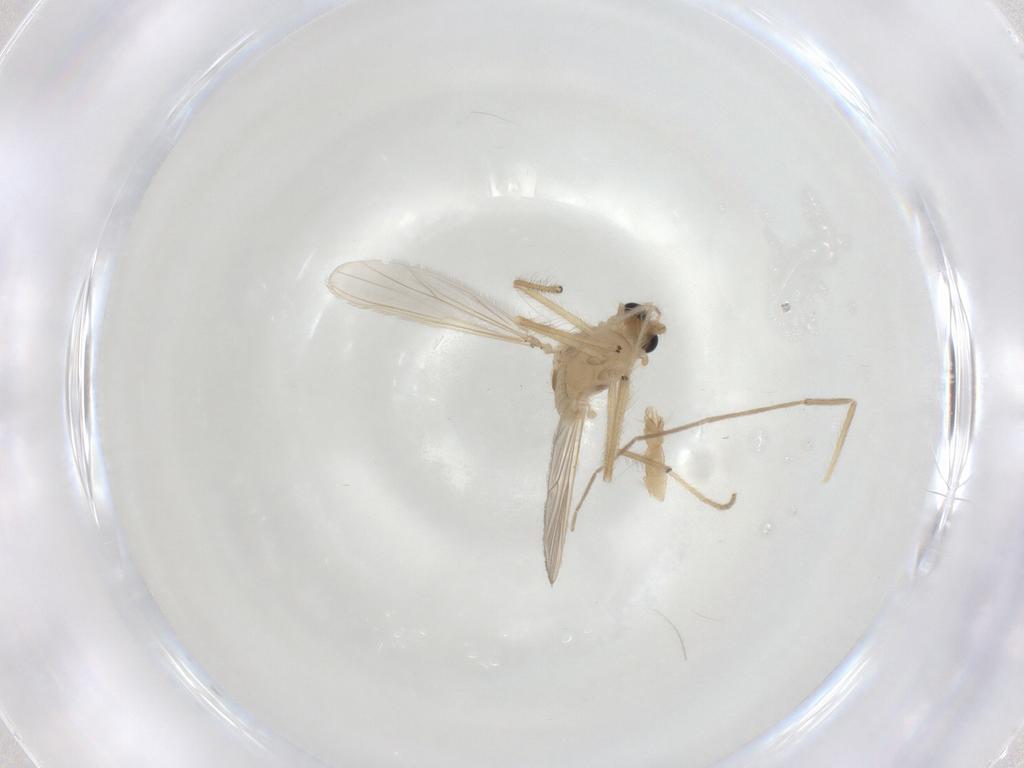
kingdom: Animalia
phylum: Arthropoda
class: Insecta
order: Diptera
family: Chironomidae
